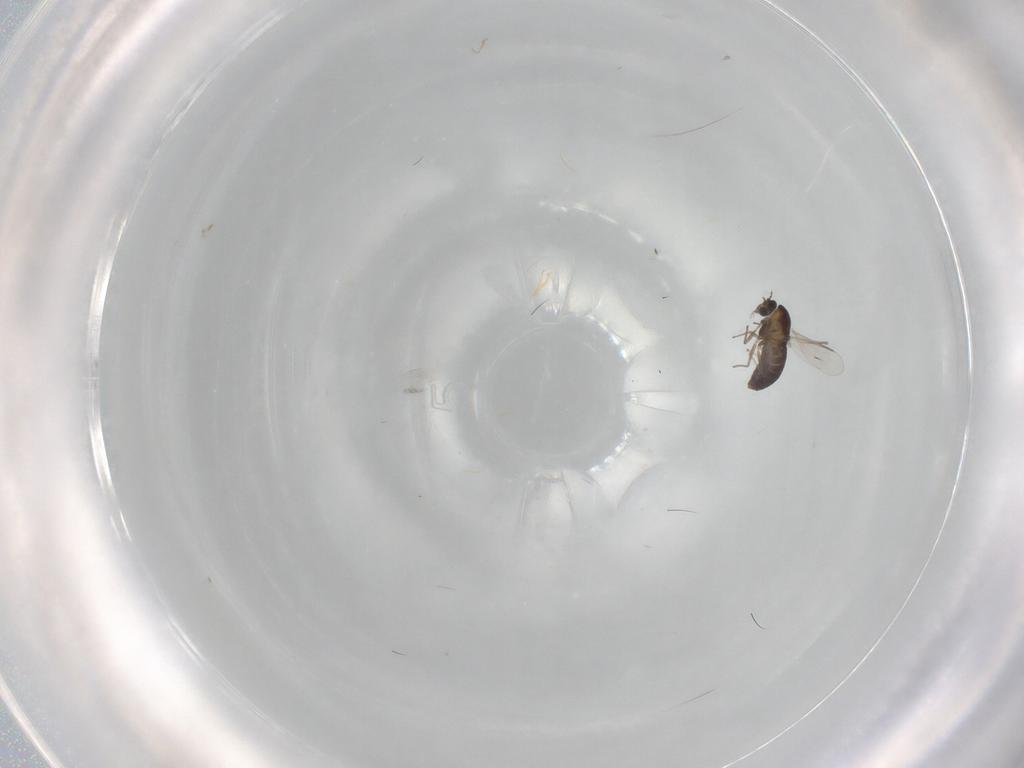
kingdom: Animalia
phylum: Arthropoda
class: Insecta
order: Diptera
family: Chironomidae
